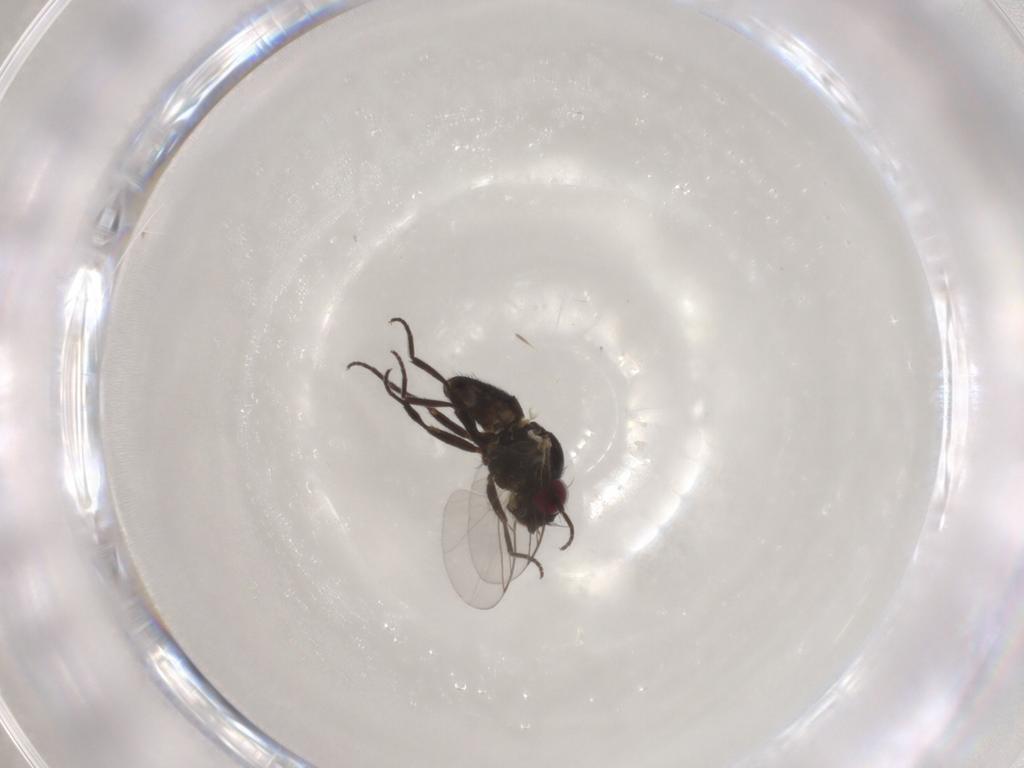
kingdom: Animalia
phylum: Arthropoda
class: Insecta
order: Diptera
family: Agromyzidae
